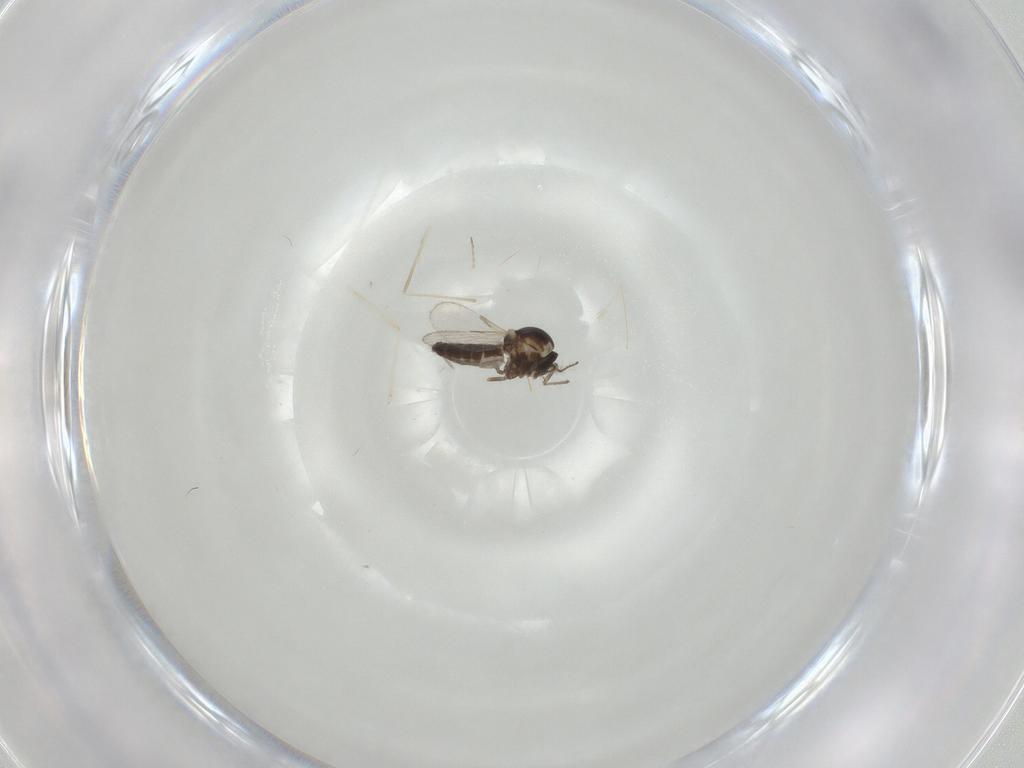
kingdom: Animalia
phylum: Arthropoda
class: Insecta
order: Diptera
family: Ceratopogonidae
